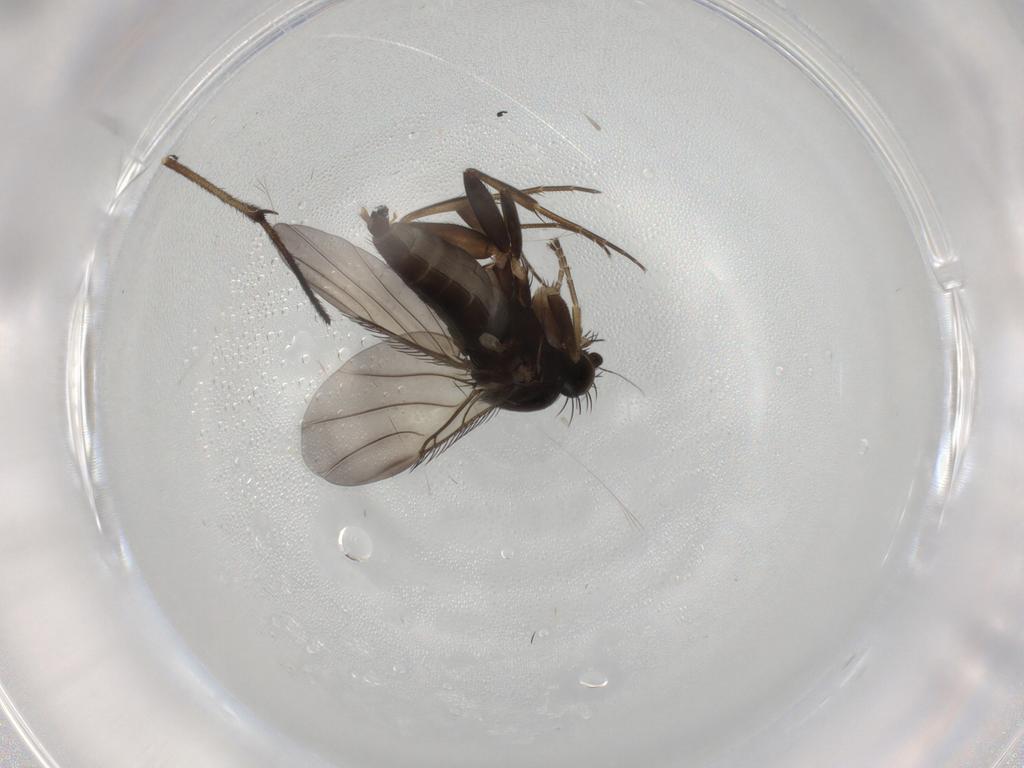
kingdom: Animalia
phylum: Arthropoda
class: Insecta
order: Diptera
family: Phoridae
